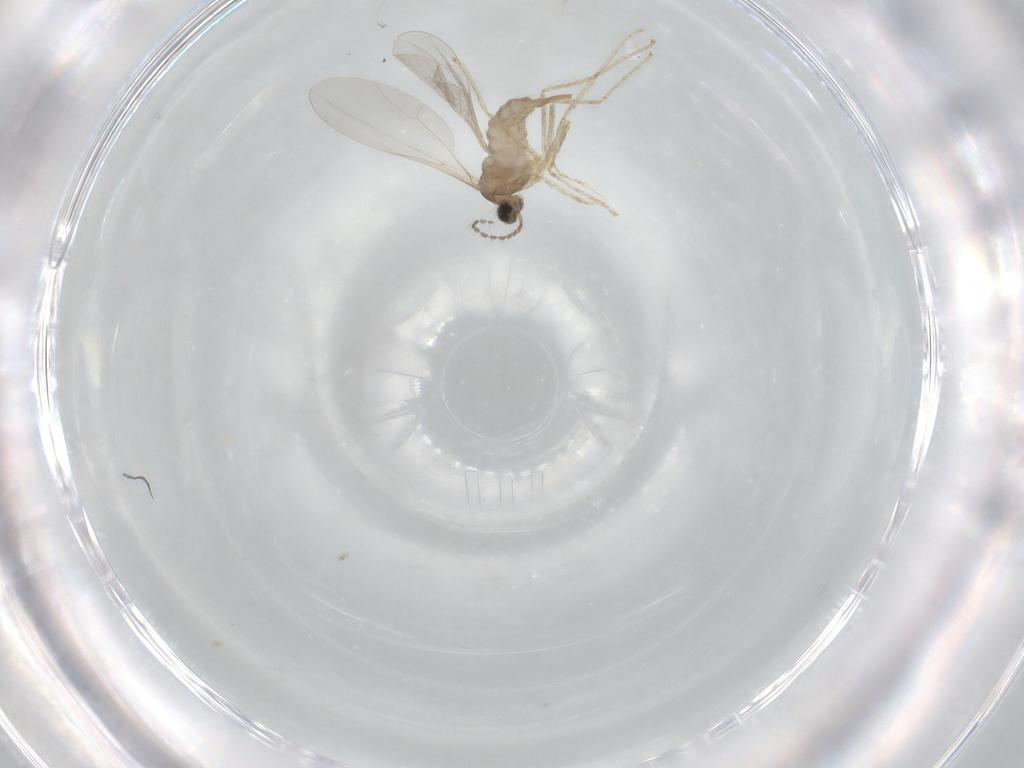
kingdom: Animalia
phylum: Arthropoda
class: Insecta
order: Diptera
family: Cecidomyiidae
